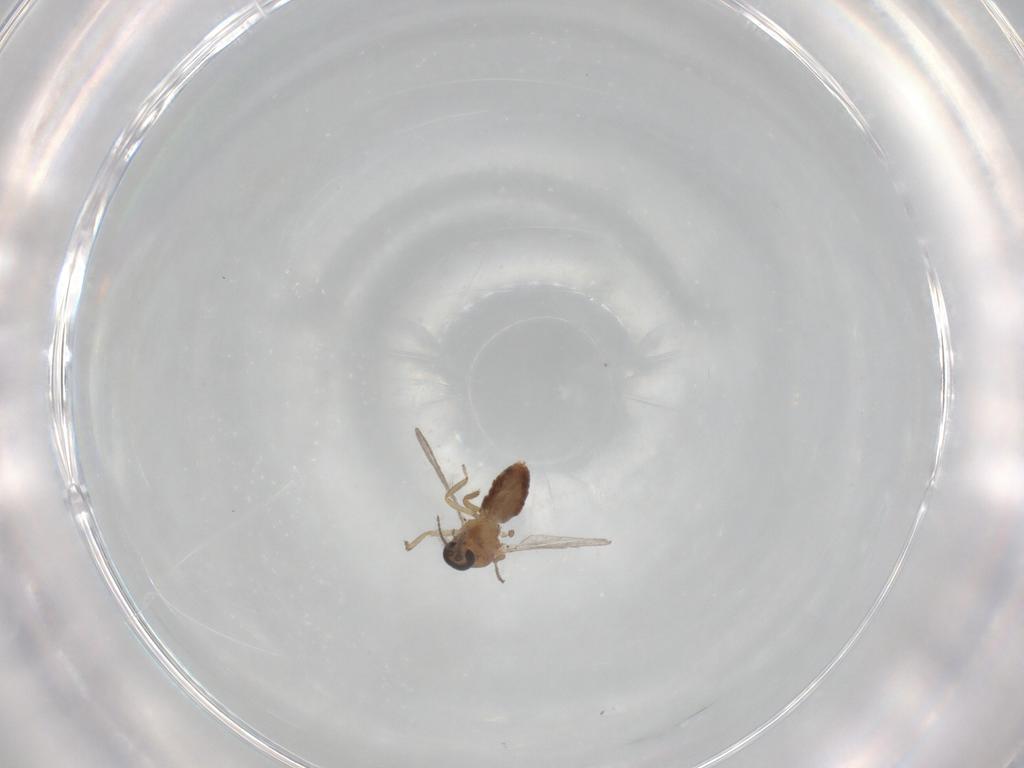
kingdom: Animalia
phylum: Arthropoda
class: Insecta
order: Diptera
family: Ceratopogonidae
